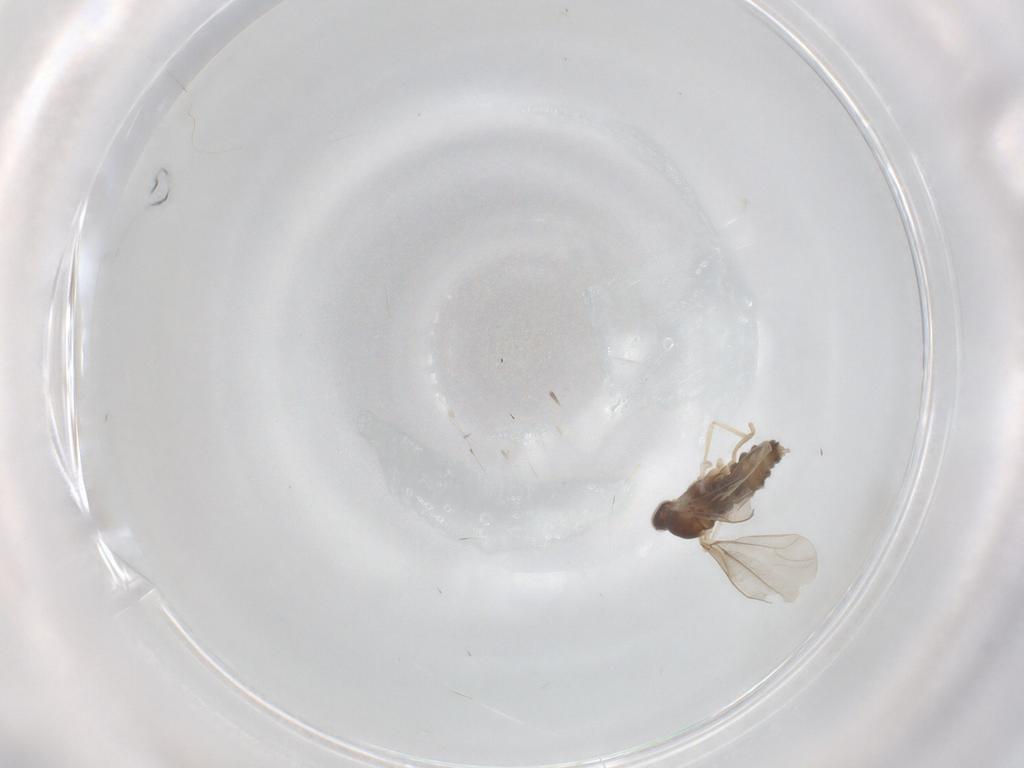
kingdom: Animalia
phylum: Arthropoda
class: Insecta
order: Diptera
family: Cecidomyiidae
